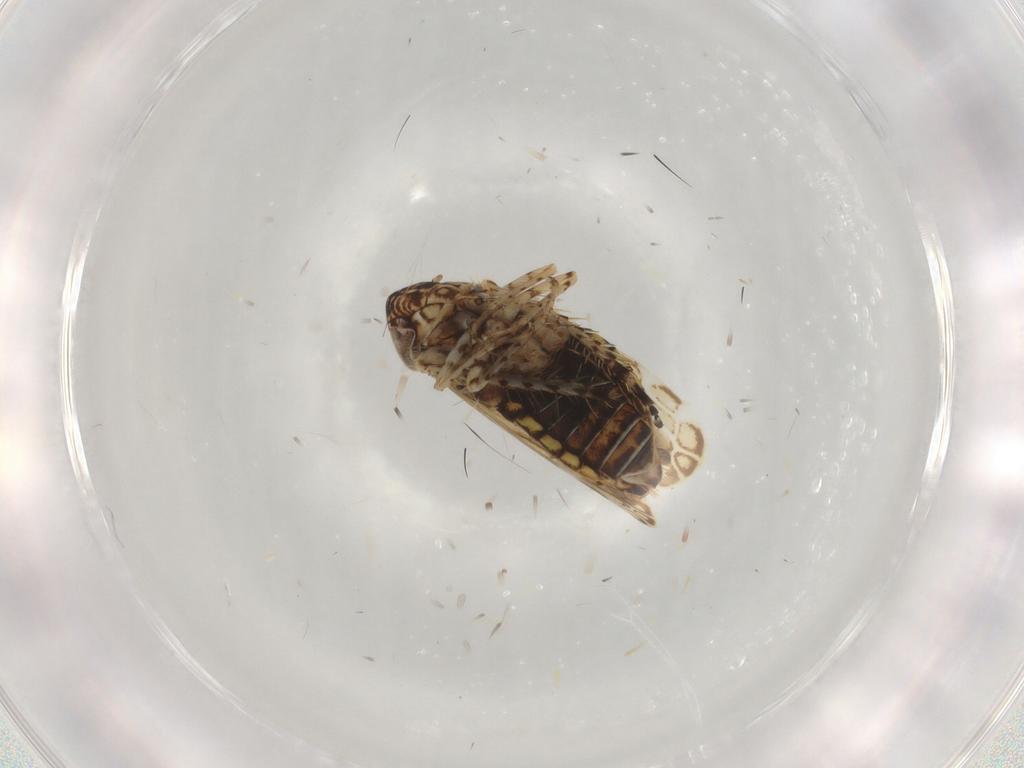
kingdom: Animalia
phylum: Arthropoda
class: Insecta
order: Hymenoptera
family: Dryinidae
